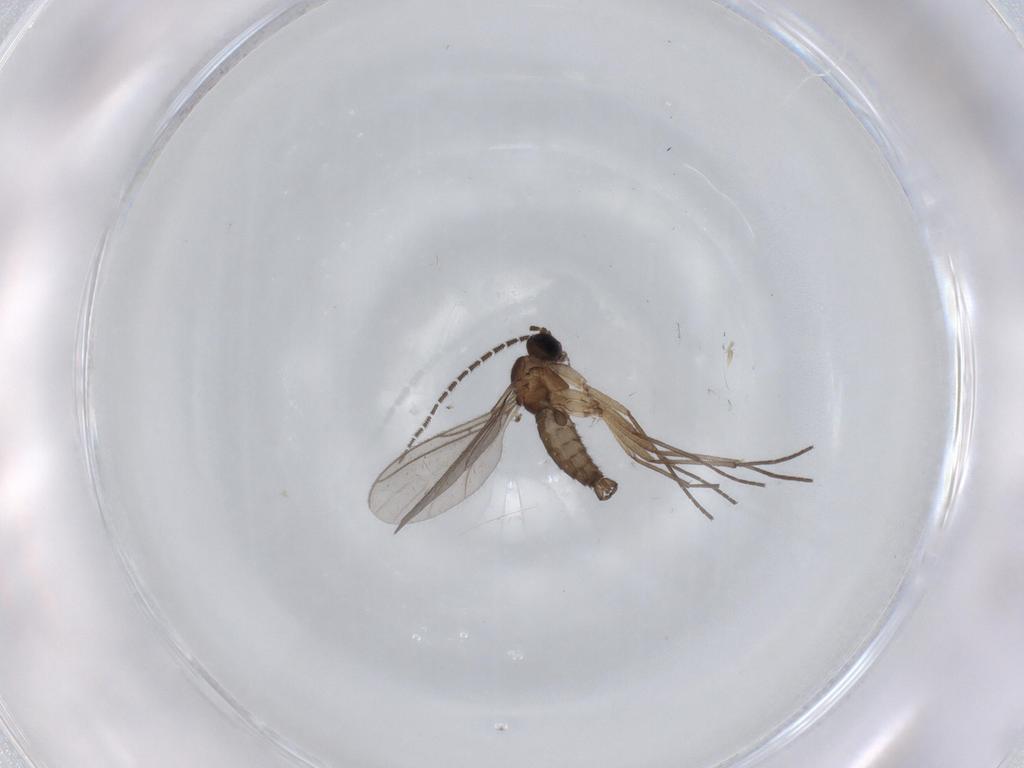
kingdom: Animalia
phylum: Arthropoda
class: Insecta
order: Diptera
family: Sciaridae
